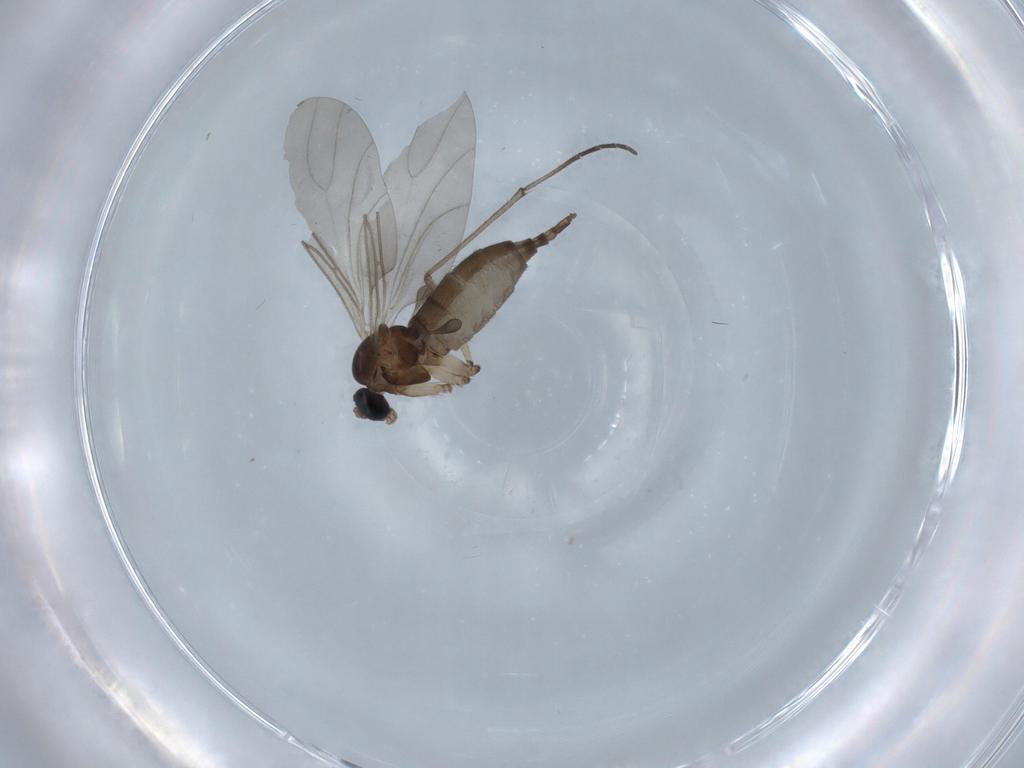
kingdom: Animalia
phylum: Arthropoda
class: Insecta
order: Diptera
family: Sciaridae
